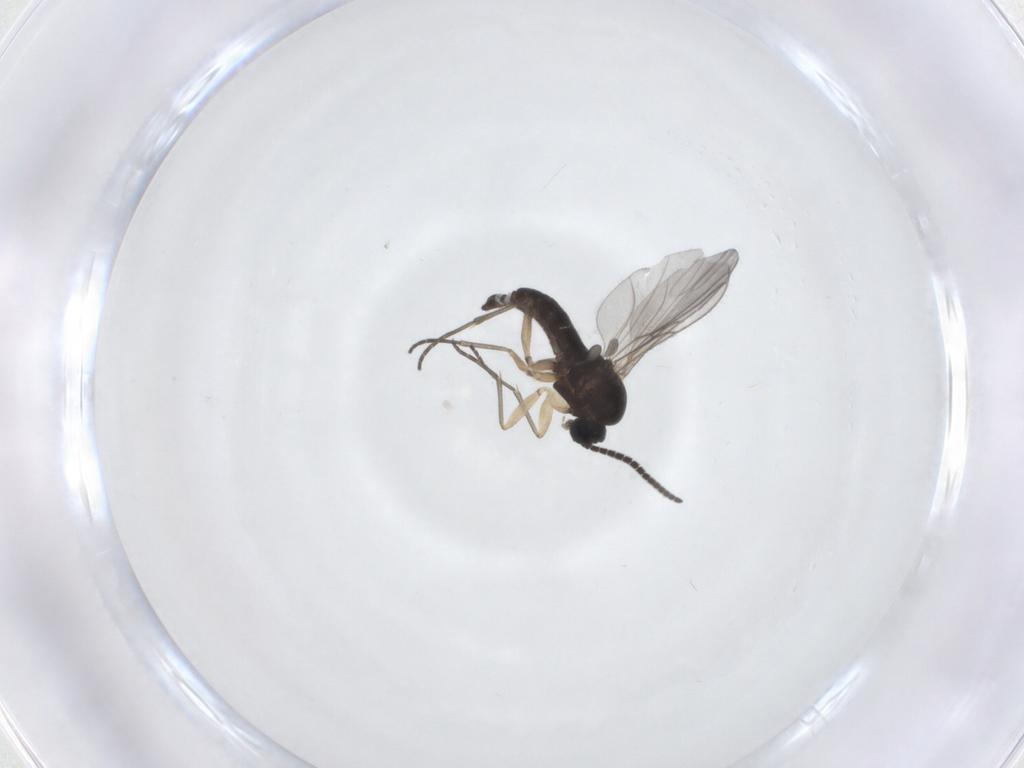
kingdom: Animalia
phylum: Arthropoda
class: Insecta
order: Diptera
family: Sciaridae
